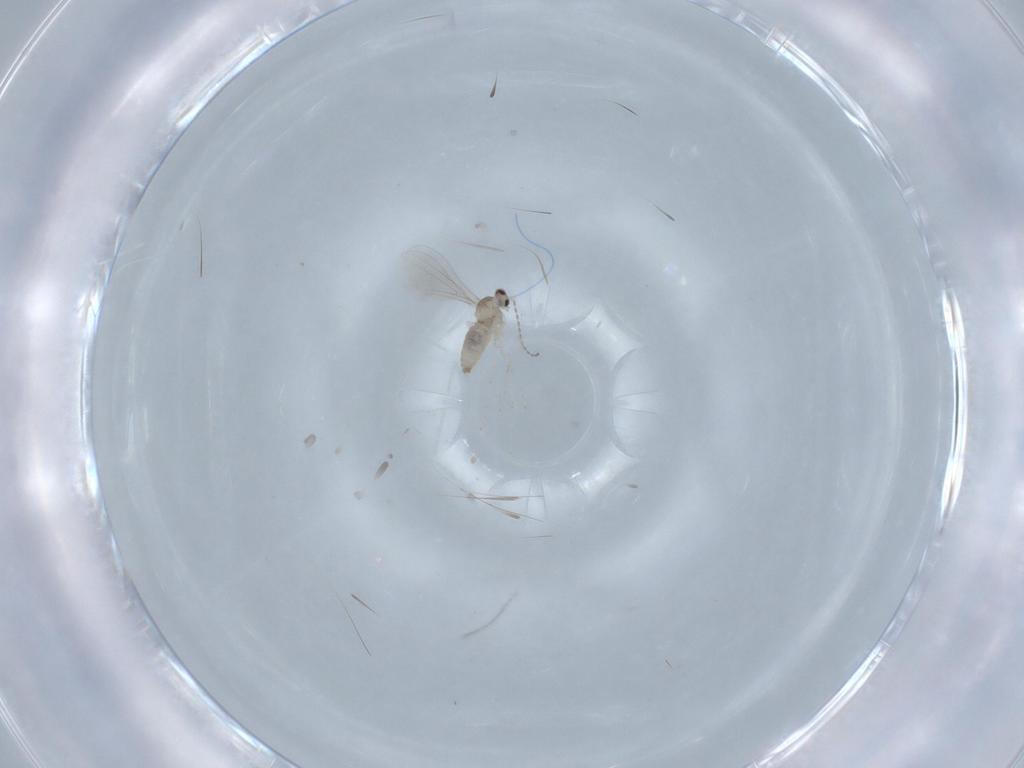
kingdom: Animalia
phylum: Arthropoda
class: Insecta
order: Diptera
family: Cecidomyiidae
